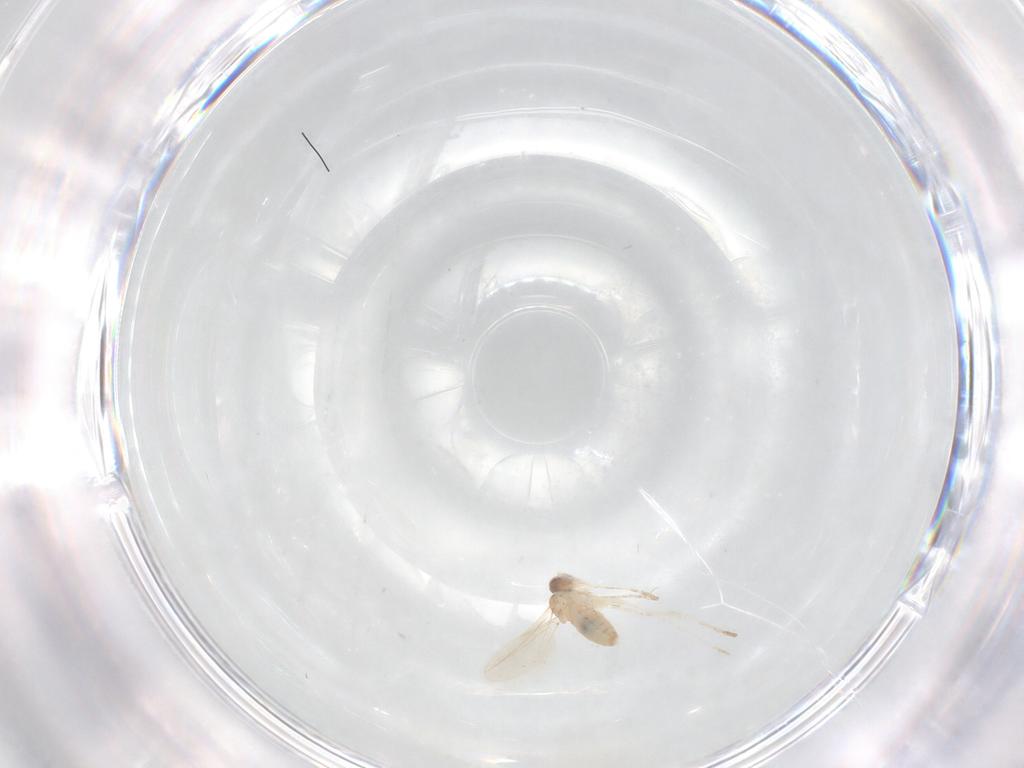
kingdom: Animalia
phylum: Arthropoda
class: Insecta
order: Diptera
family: Cecidomyiidae
